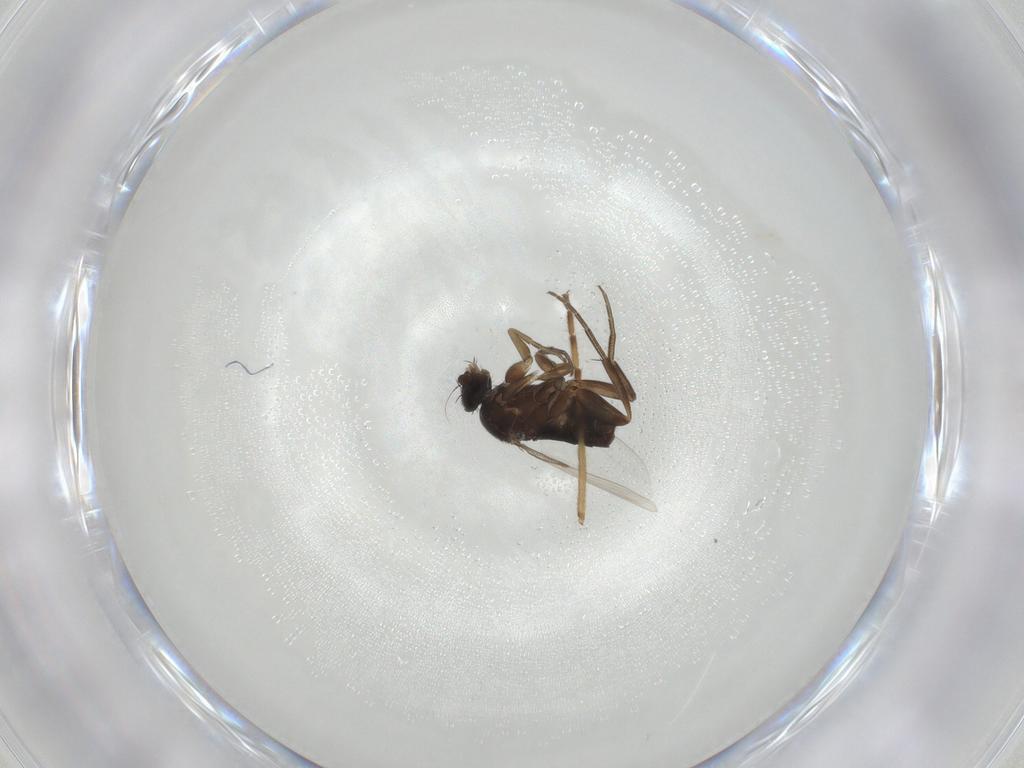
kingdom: Animalia
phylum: Arthropoda
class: Insecta
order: Diptera
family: Phoridae
